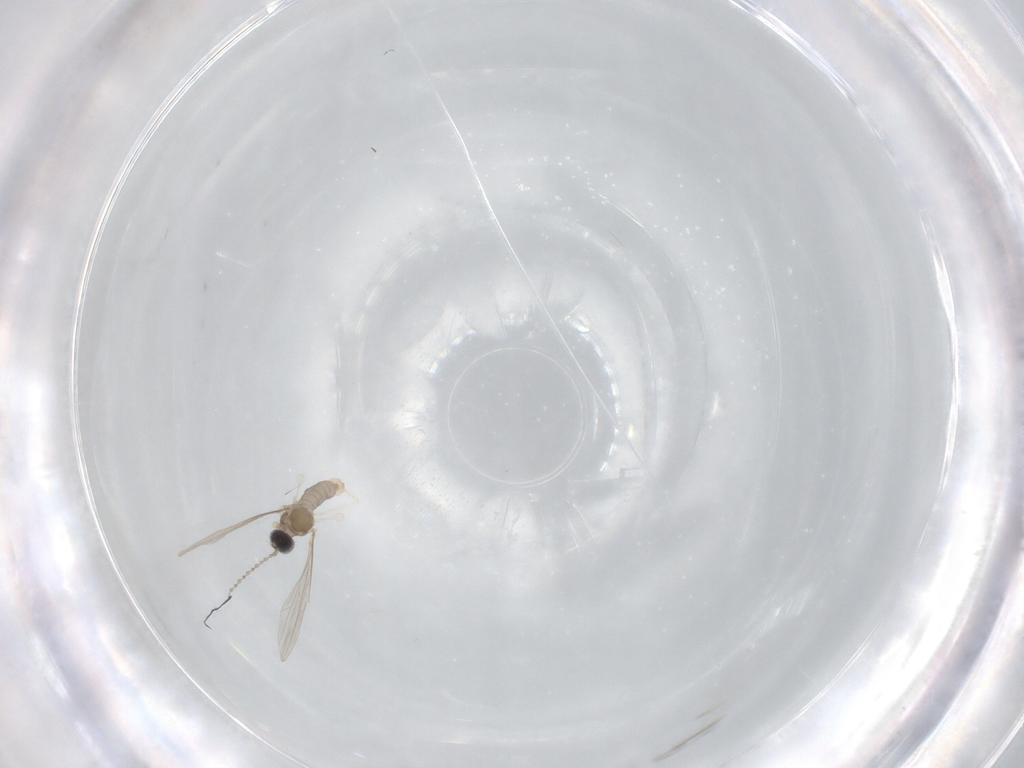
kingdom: Animalia
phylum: Arthropoda
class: Insecta
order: Diptera
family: Cecidomyiidae
